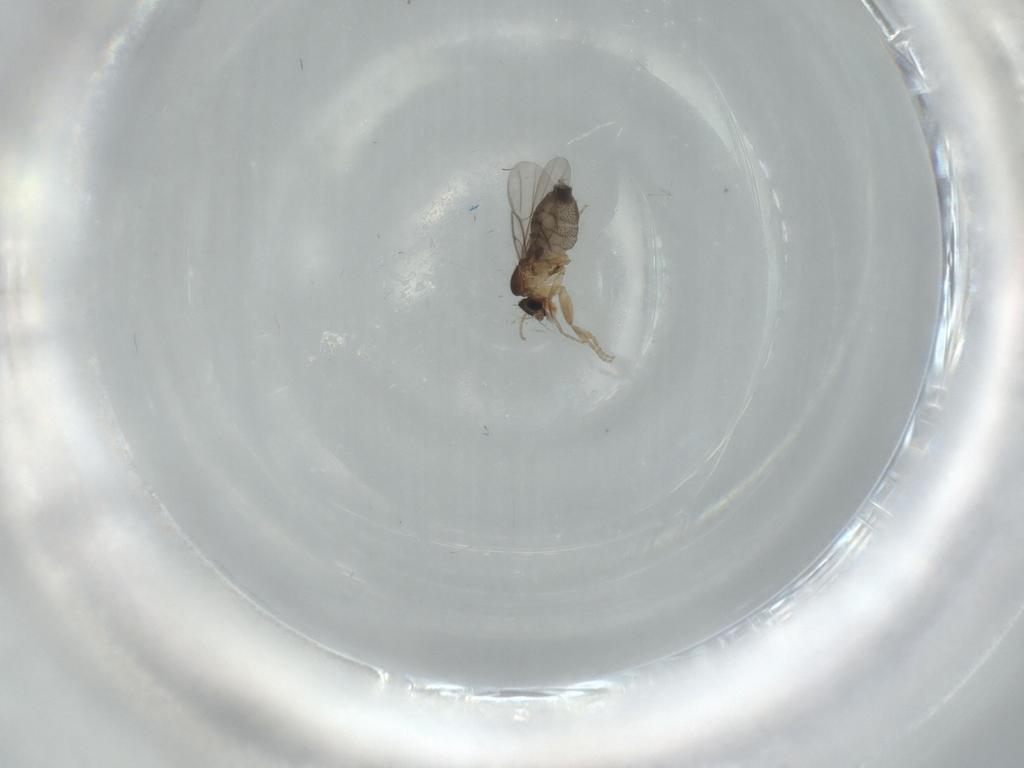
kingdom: Animalia
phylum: Arthropoda
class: Insecta
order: Diptera
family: Phoridae
